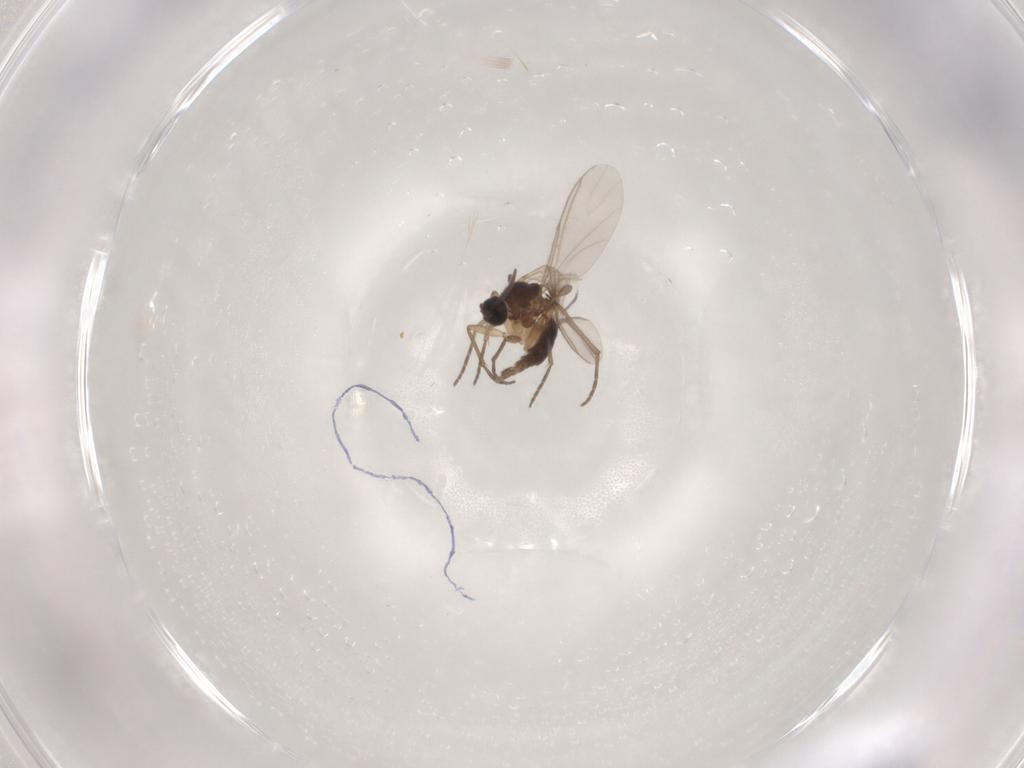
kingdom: Animalia
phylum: Arthropoda
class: Insecta
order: Diptera
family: Sciaridae
